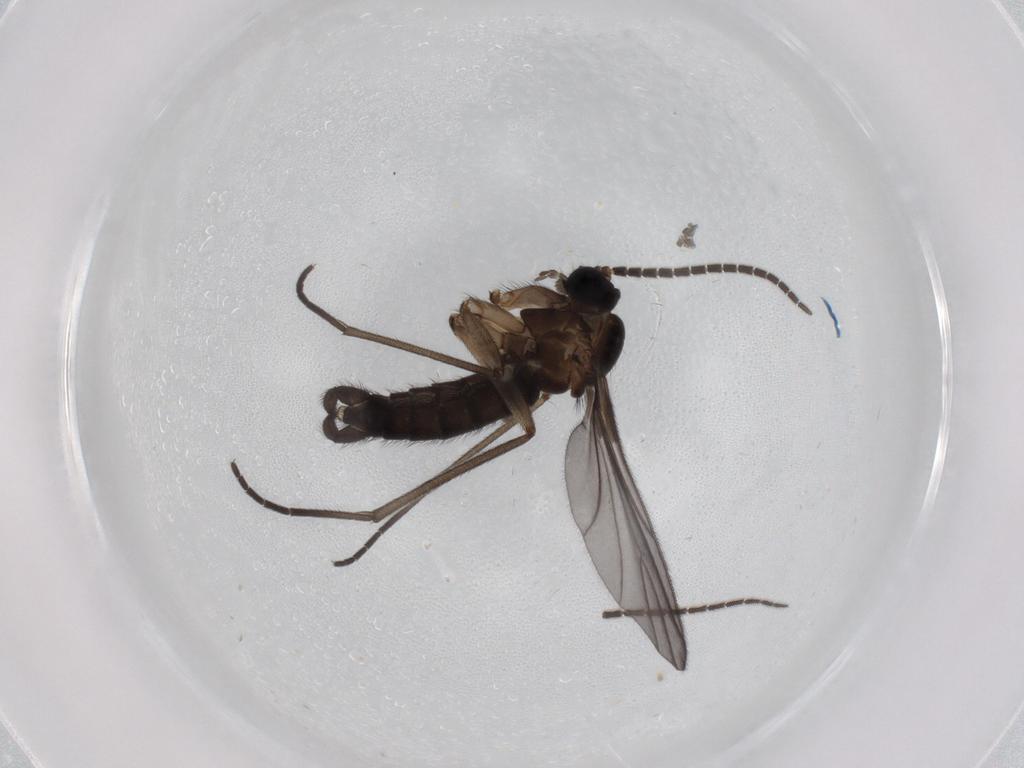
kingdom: Animalia
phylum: Arthropoda
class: Insecta
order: Diptera
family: Sciaridae
